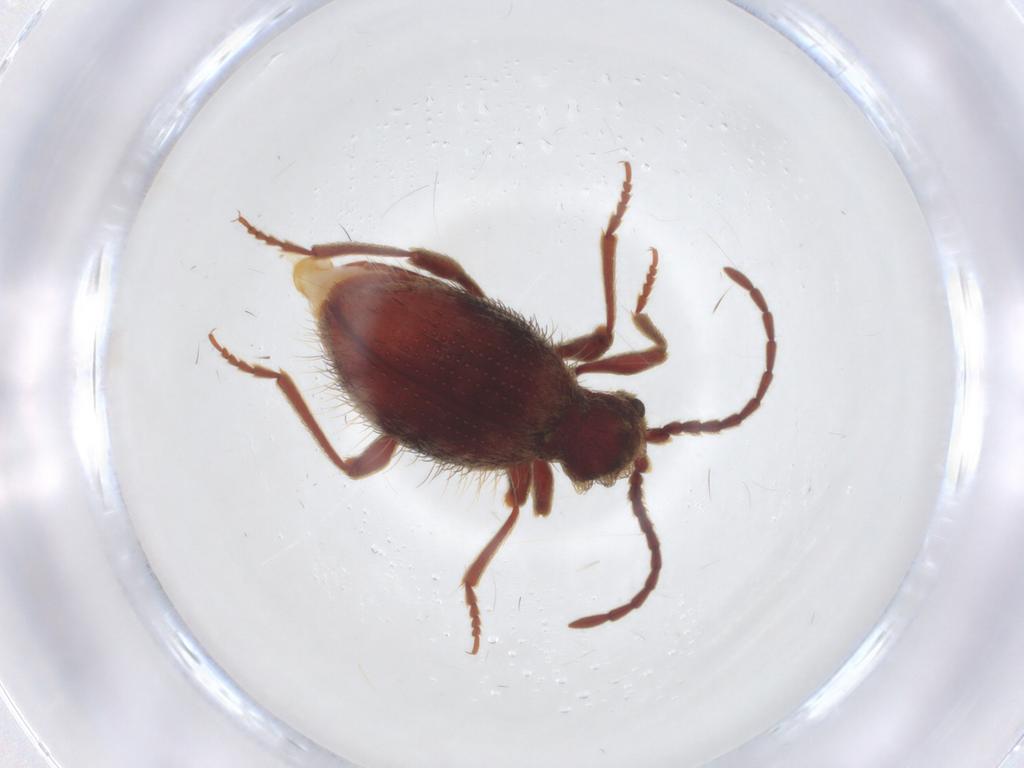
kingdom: Animalia
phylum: Arthropoda
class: Insecta
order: Coleoptera
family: Ptinidae
